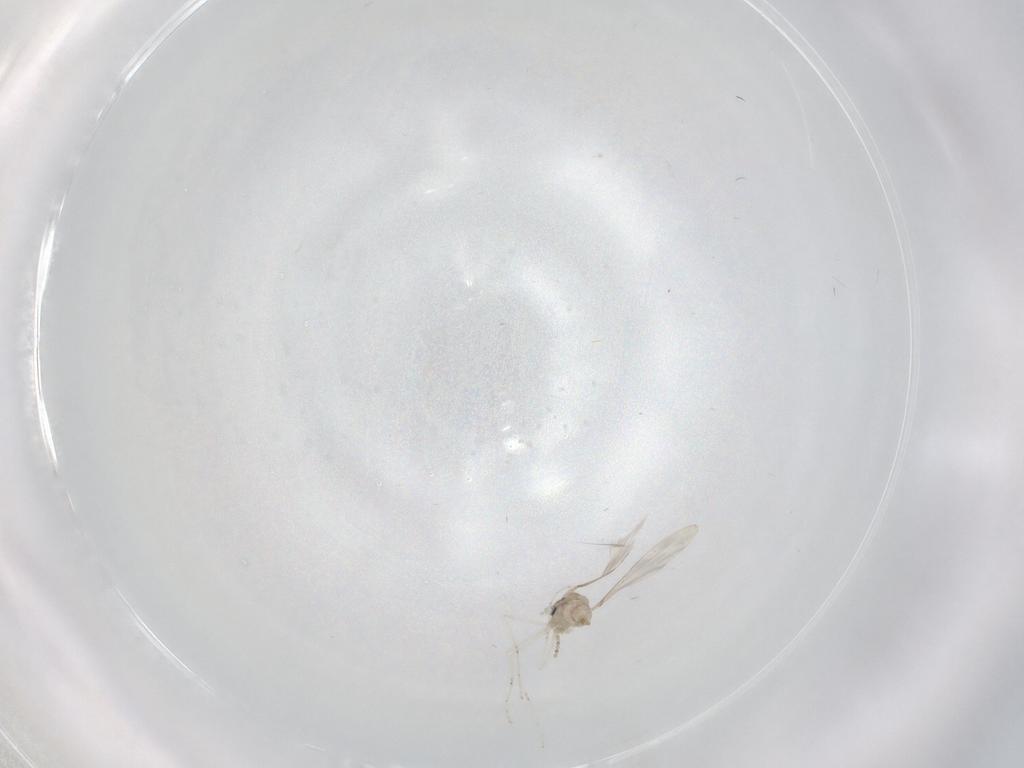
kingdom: Animalia
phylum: Arthropoda
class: Insecta
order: Diptera
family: Cecidomyiidae
